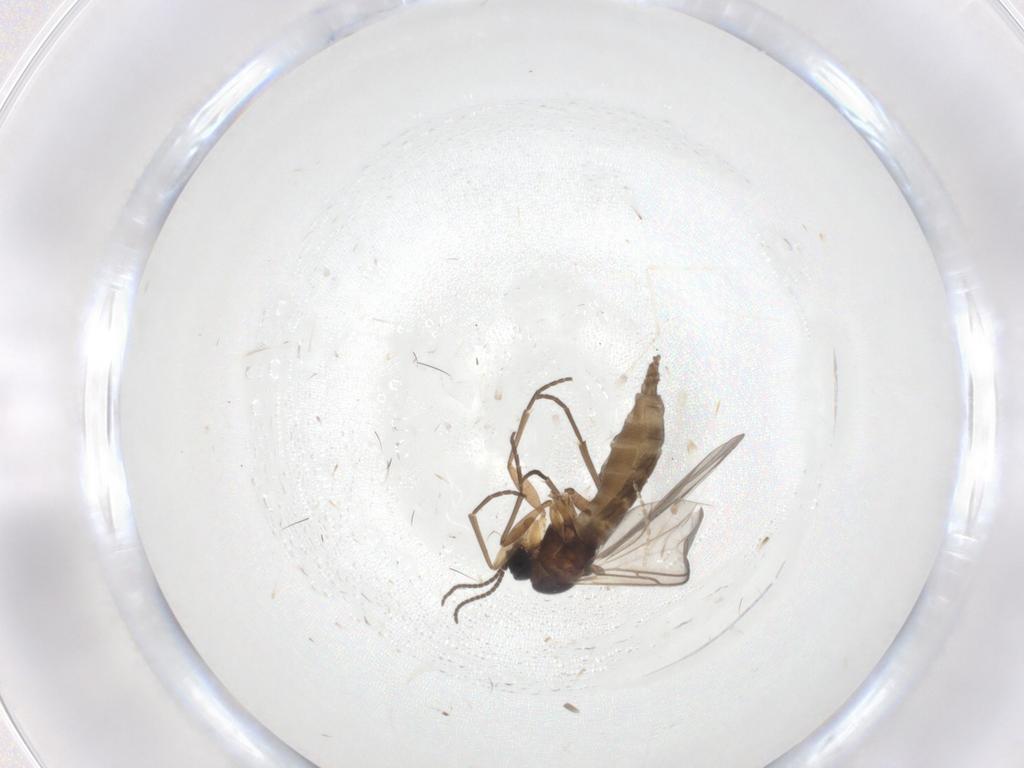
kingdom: Animalia
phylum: Arthropoda
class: Insecta
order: Diptera
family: Sciaridae
